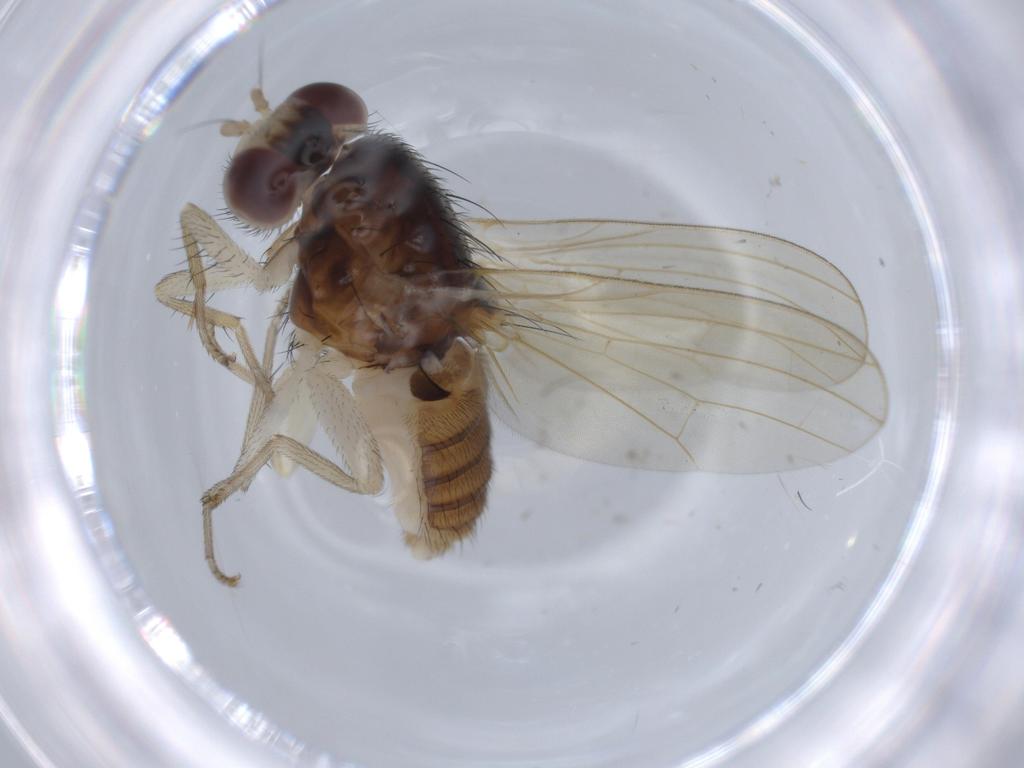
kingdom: Animalia
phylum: Arthropoda
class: Insecta
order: Diptera
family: Lauxaniidae
